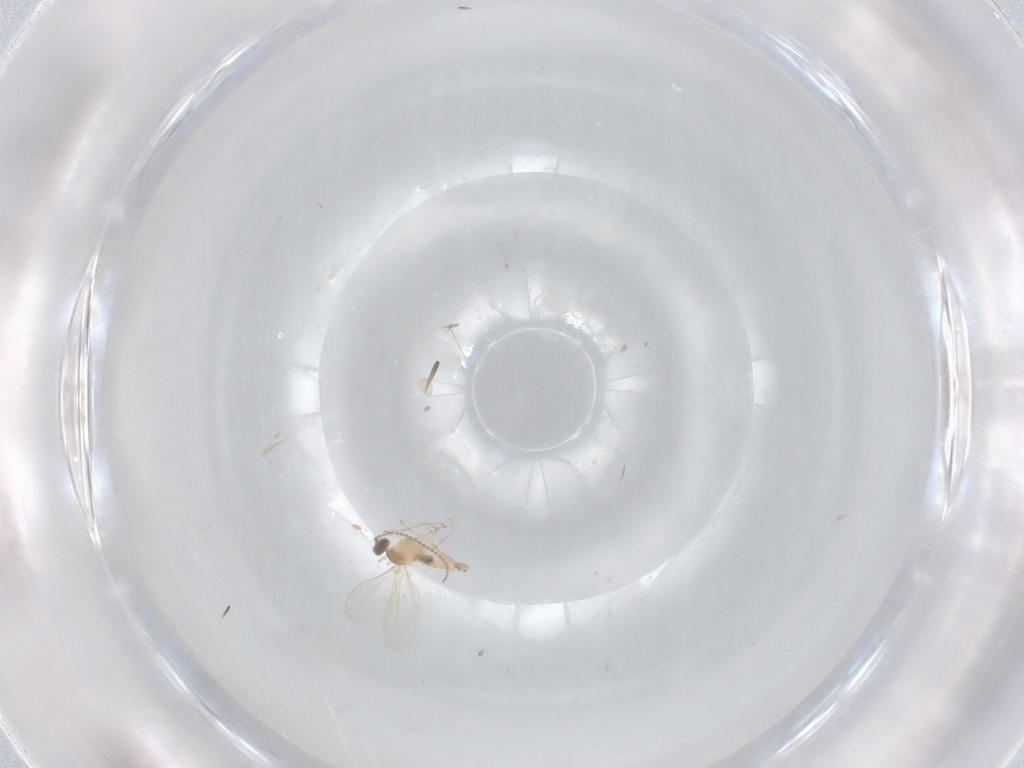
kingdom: Animalia
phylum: Arthropoda
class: Insecta
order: Diptera
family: Cecidomyiidae
